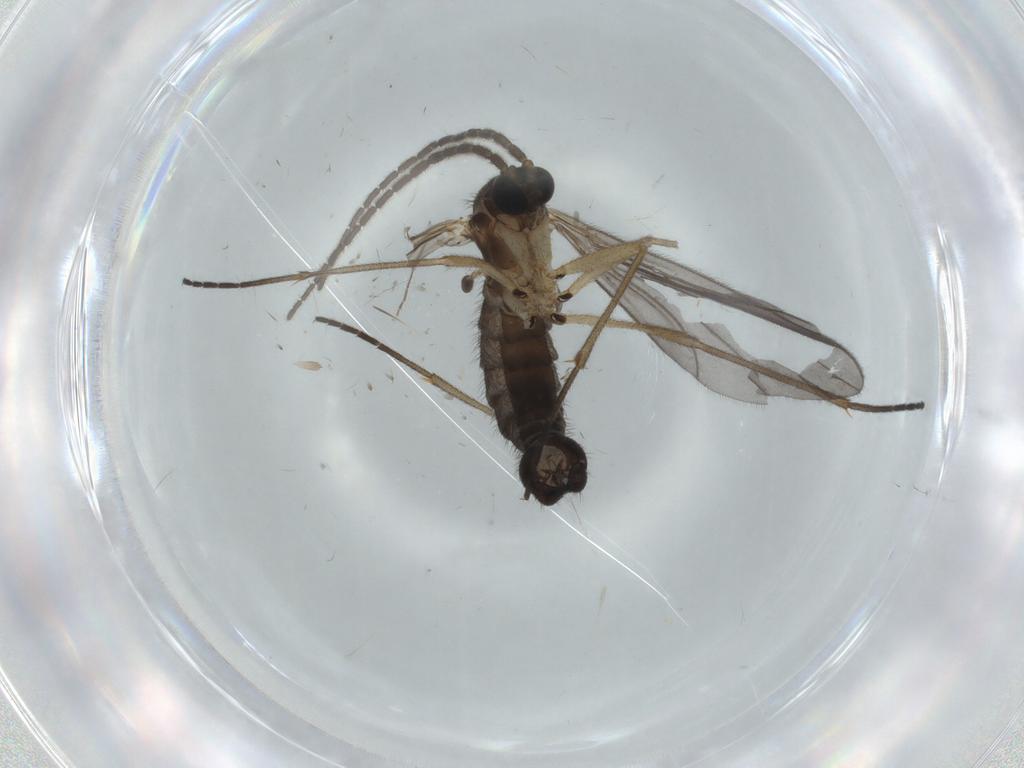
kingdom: Animalia
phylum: Arthropoda
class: Insecta
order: Diptera
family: Sciaridae
